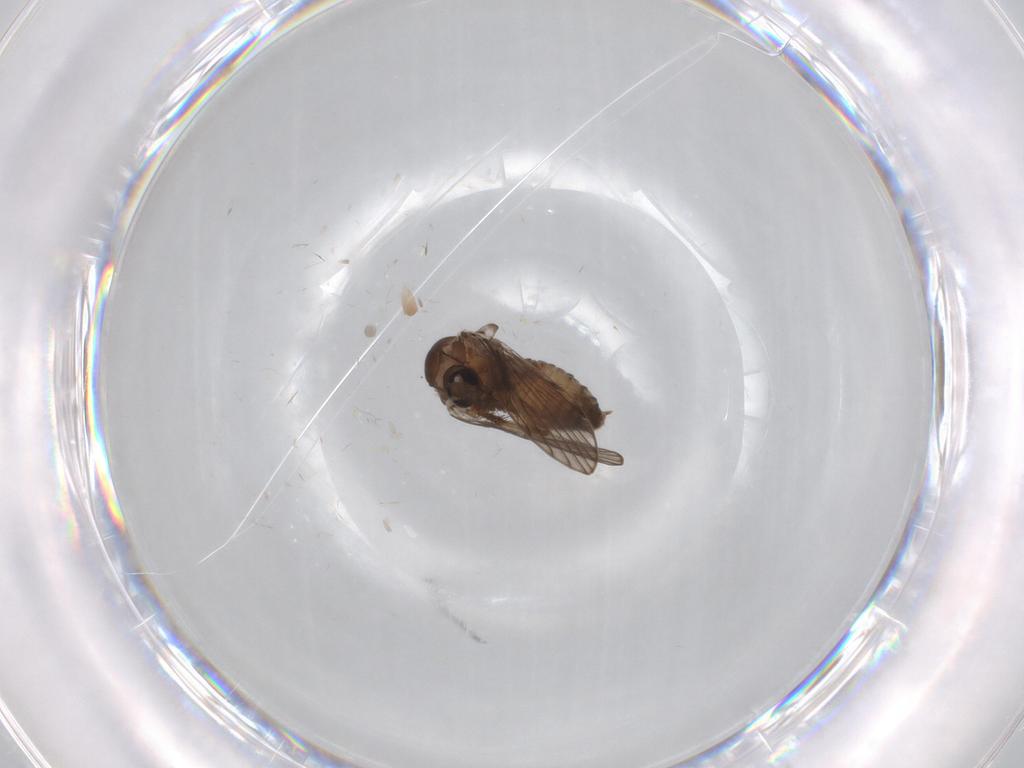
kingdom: Animalia
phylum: Arthropoda
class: Insecta
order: Diptera
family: Psychodidae
